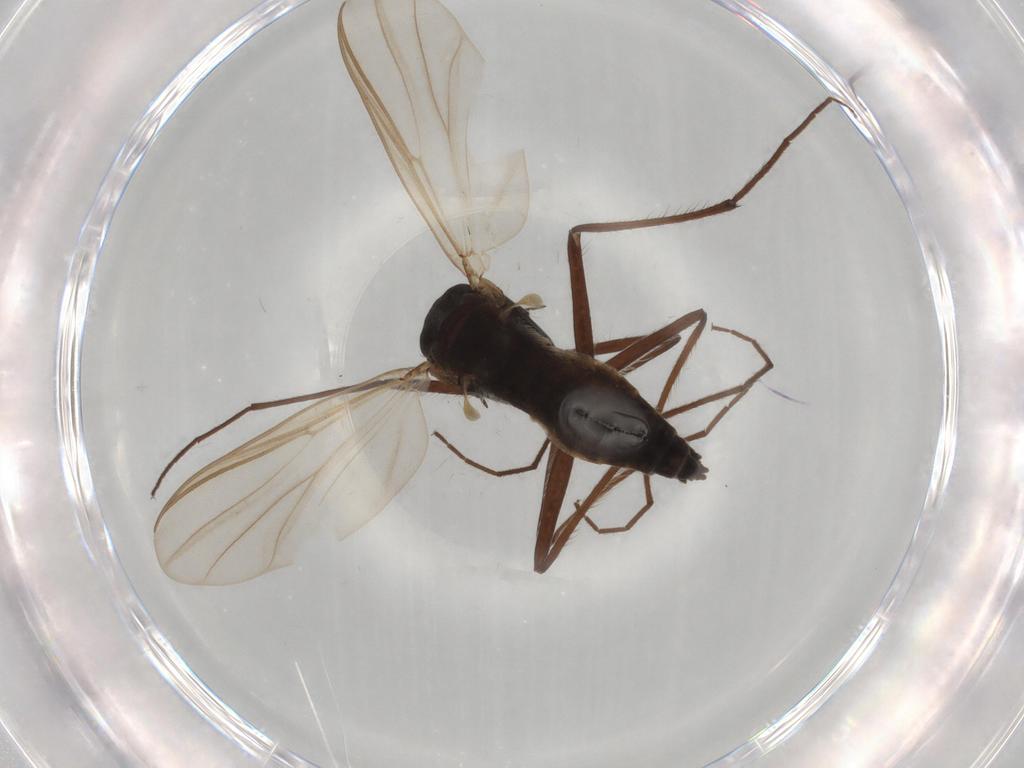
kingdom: Animalia
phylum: Arthropoda
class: Insecta
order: Diptera
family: Sciaridae
